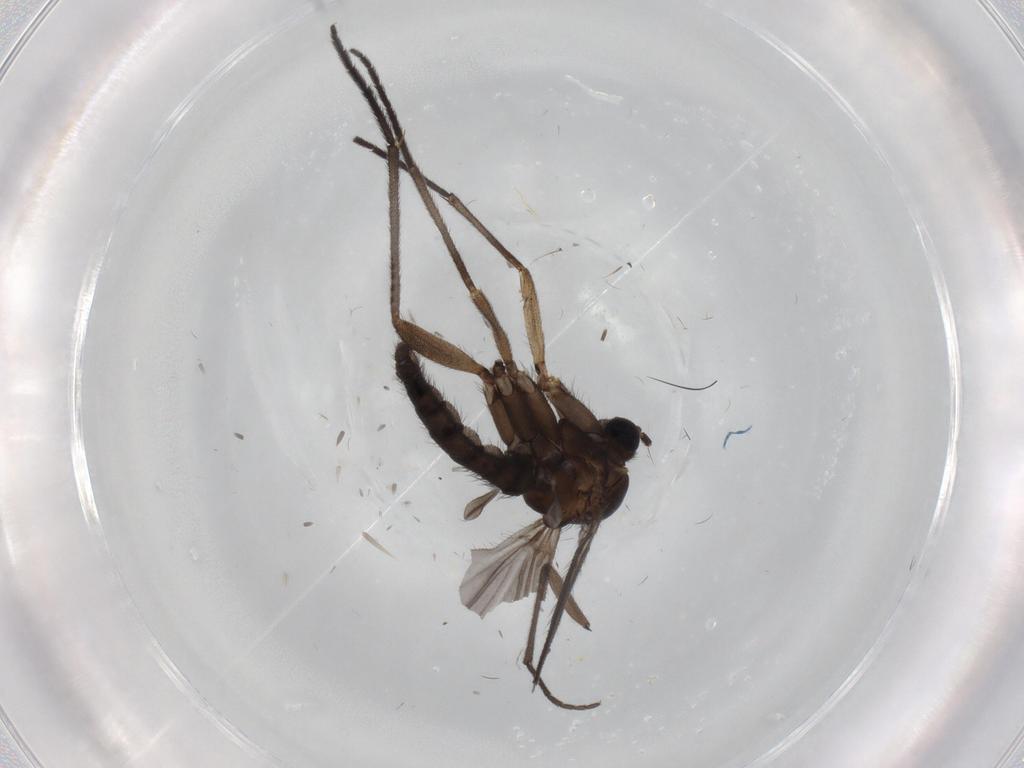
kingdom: Animalia
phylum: Arthropoda
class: Insecta
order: Diptera
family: Sciaridae
